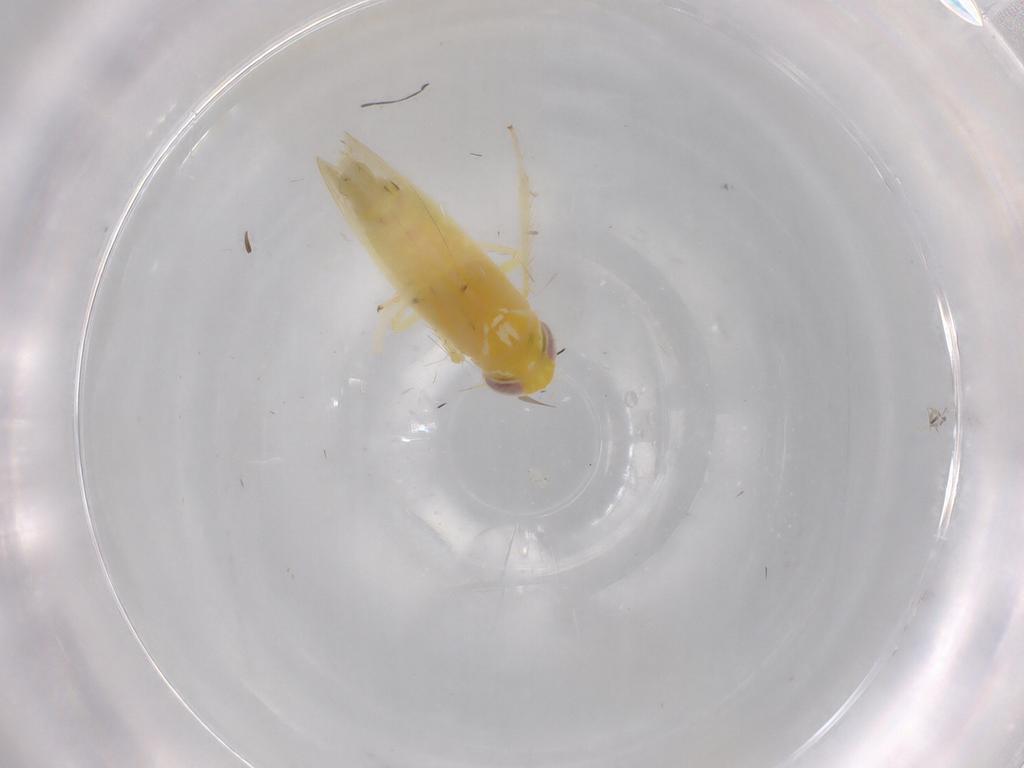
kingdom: Animalia
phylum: Arthropoda
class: Insecta
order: Hemiptera
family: Cicadellidae
